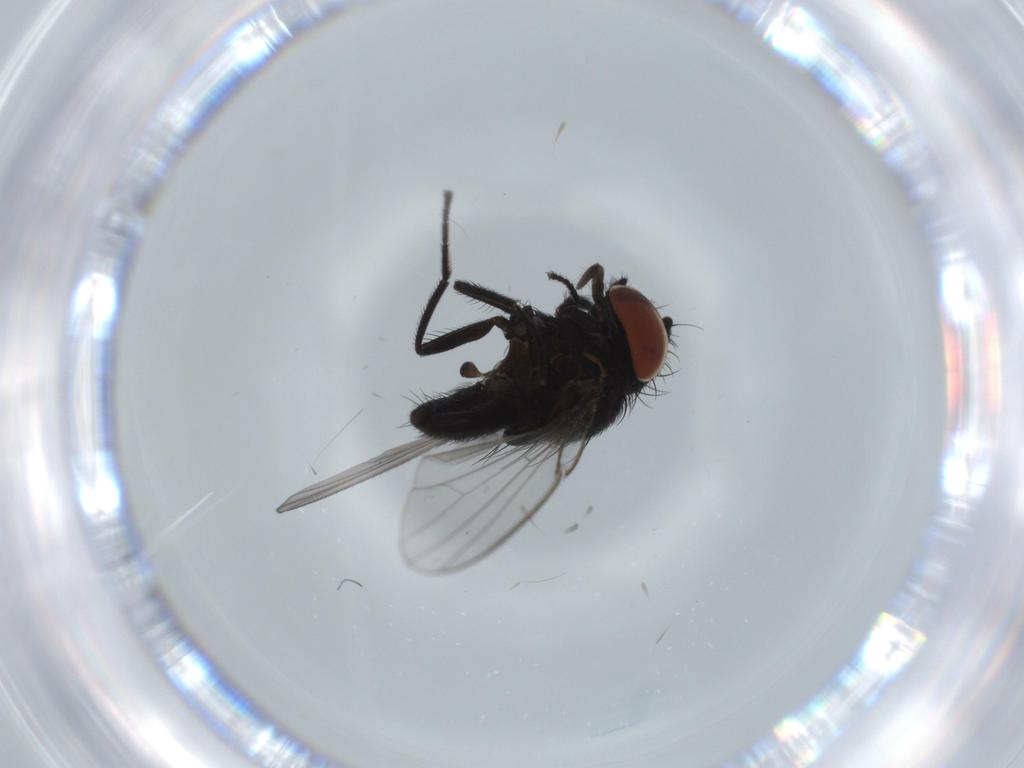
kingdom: Animalia
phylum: Arthropoda
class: Insecta
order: Diptera
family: Milichiidae
